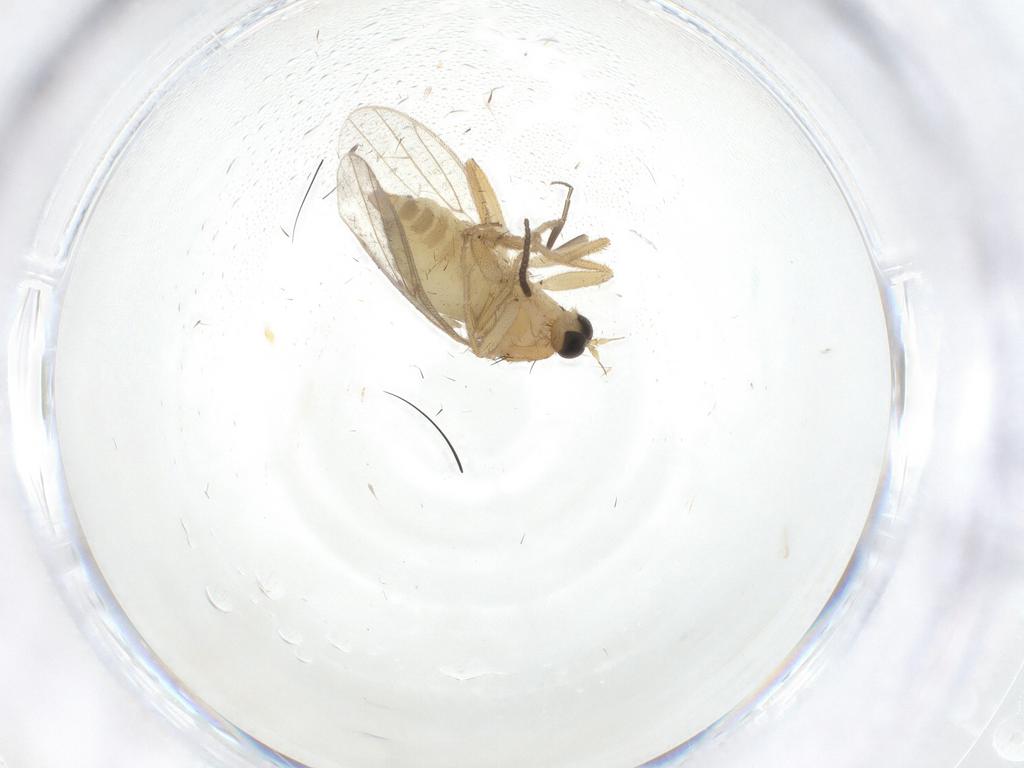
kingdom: Animalia
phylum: Arthropoda
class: Insecta
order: Diptera
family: Hybotidae
